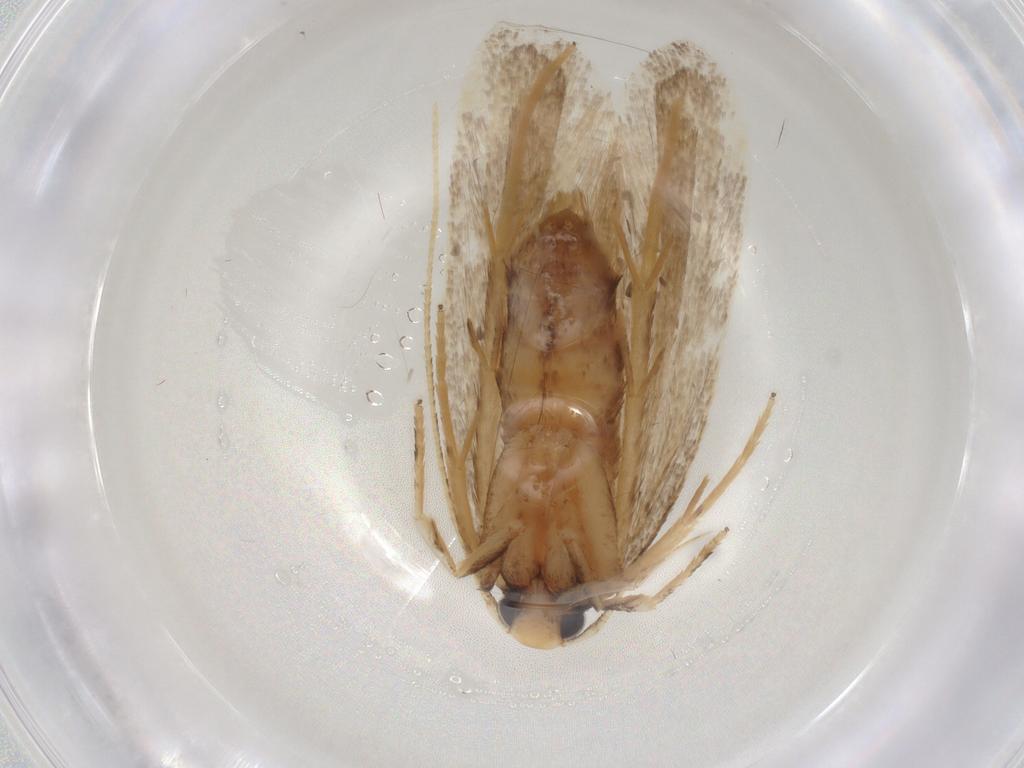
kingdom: Animalia
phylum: Arthropoda
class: Insecta
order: Lepidoptera
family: Lecithoceridae
